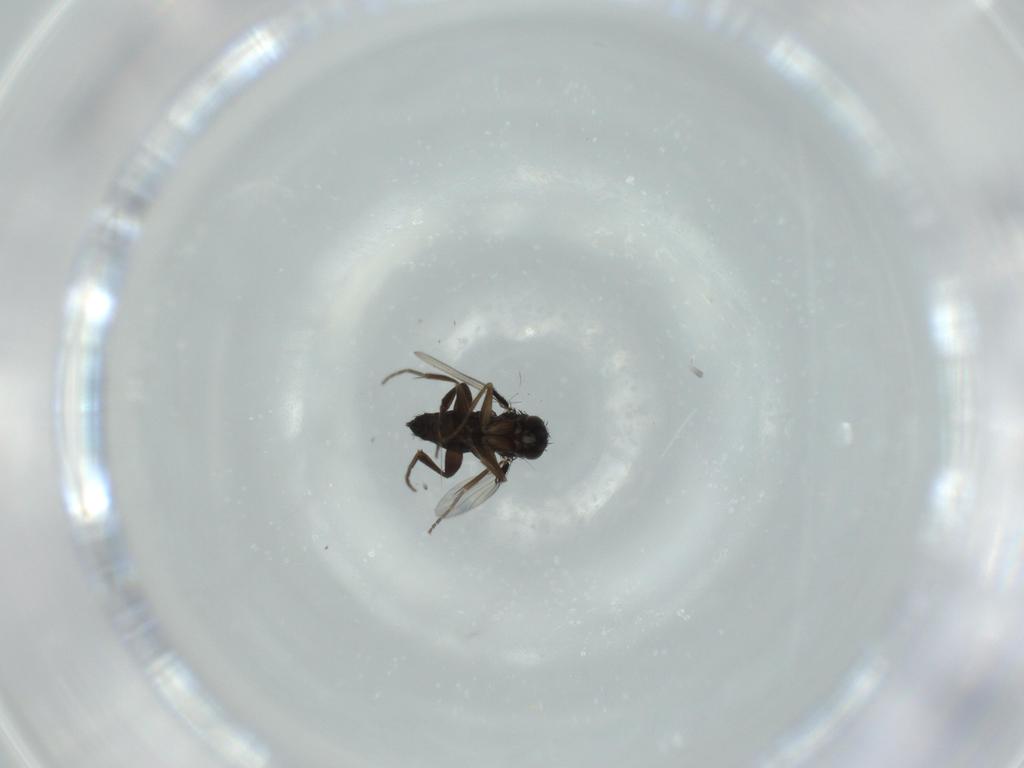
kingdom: Animalia
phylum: Arthropoda
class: Insecta
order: Diptera
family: Phoridae
